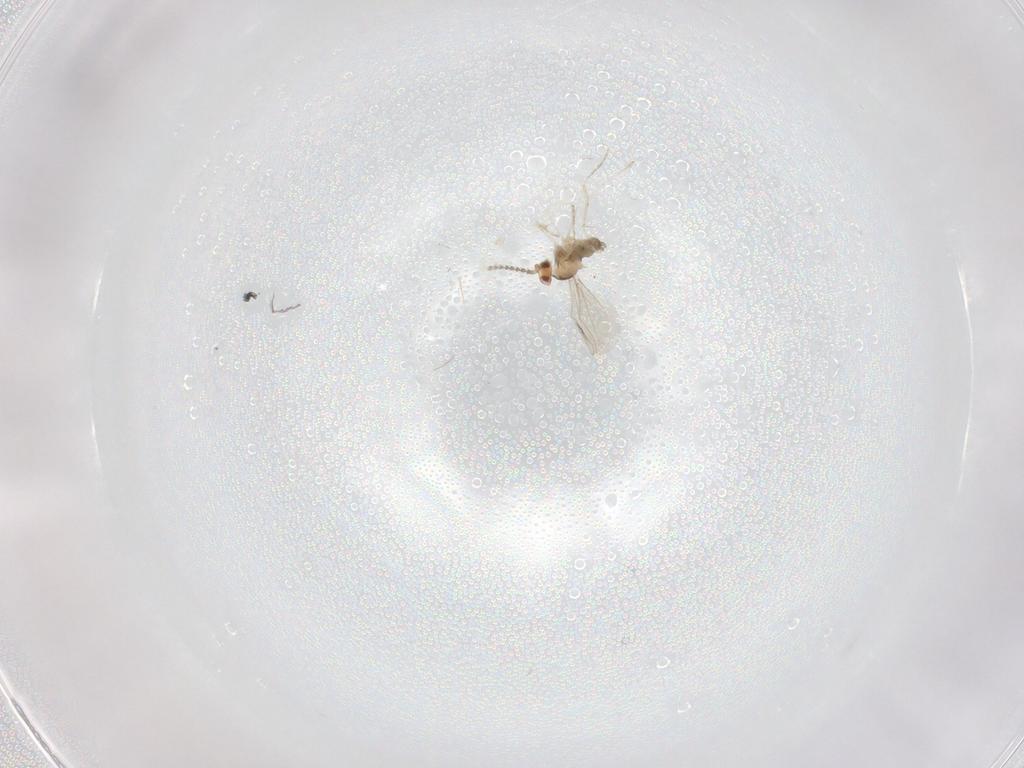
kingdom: Animalia
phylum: Arthropoda
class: Insecta
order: Diptera
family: Cecidomyiidae
